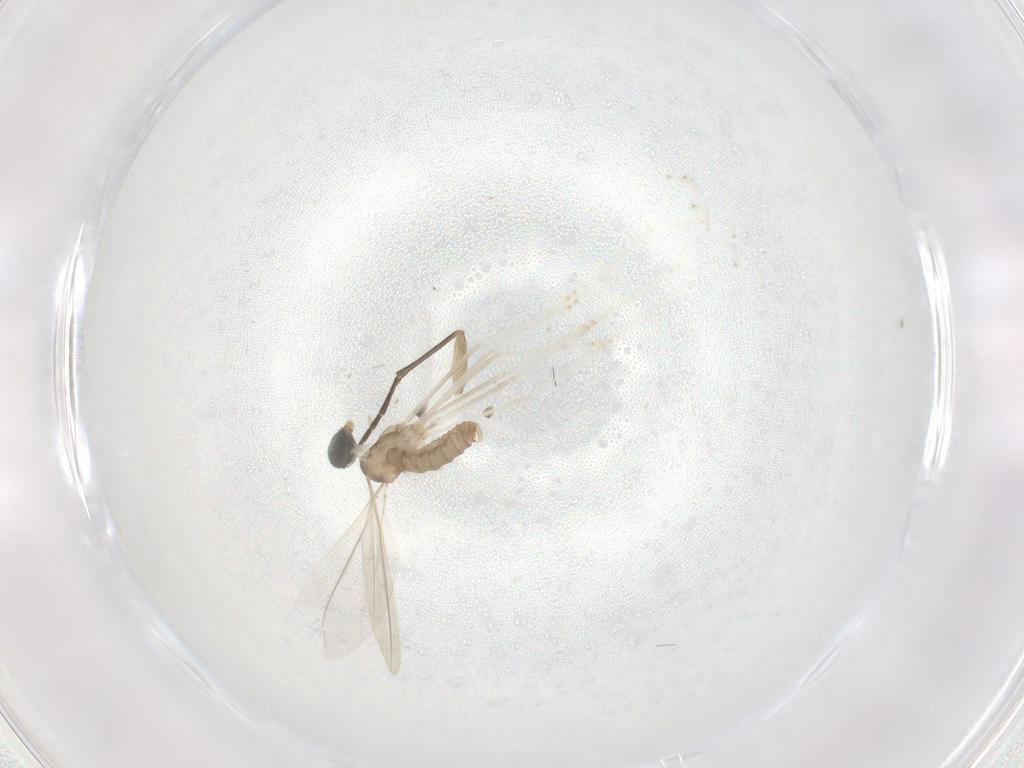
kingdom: Animalia
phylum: Arthropoda
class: Insecta
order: Diptera
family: Cecidomyiidae
